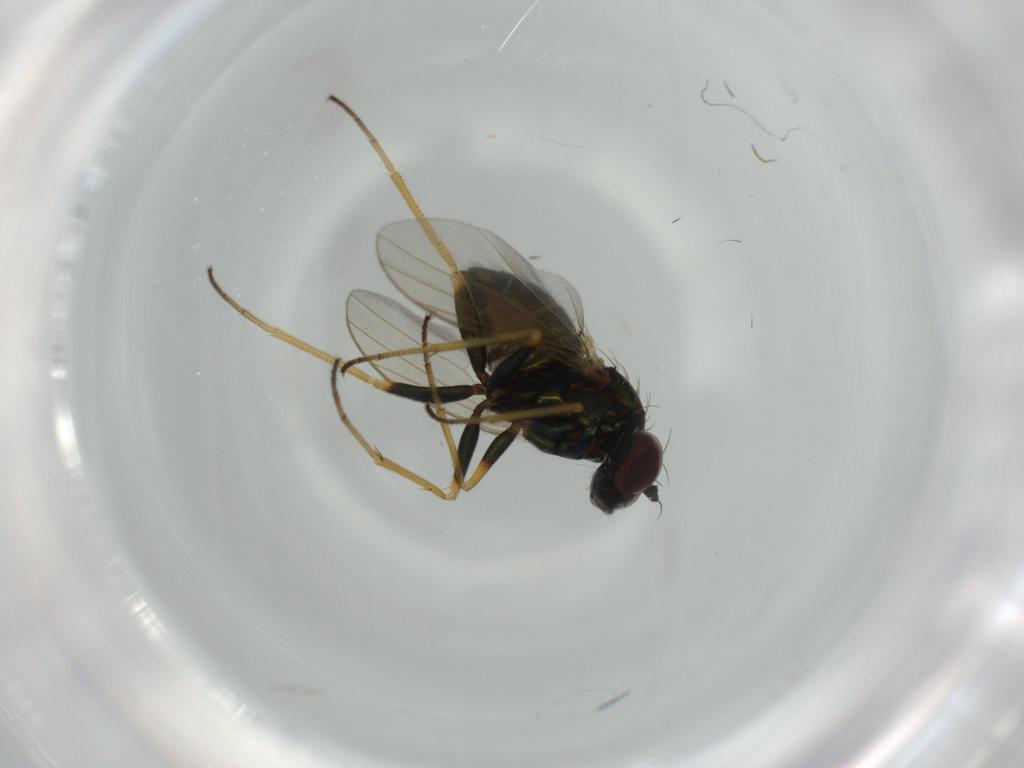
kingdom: Animalia
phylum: Arthropoda
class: Insecta
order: Diptera
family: Dolichopodidae
